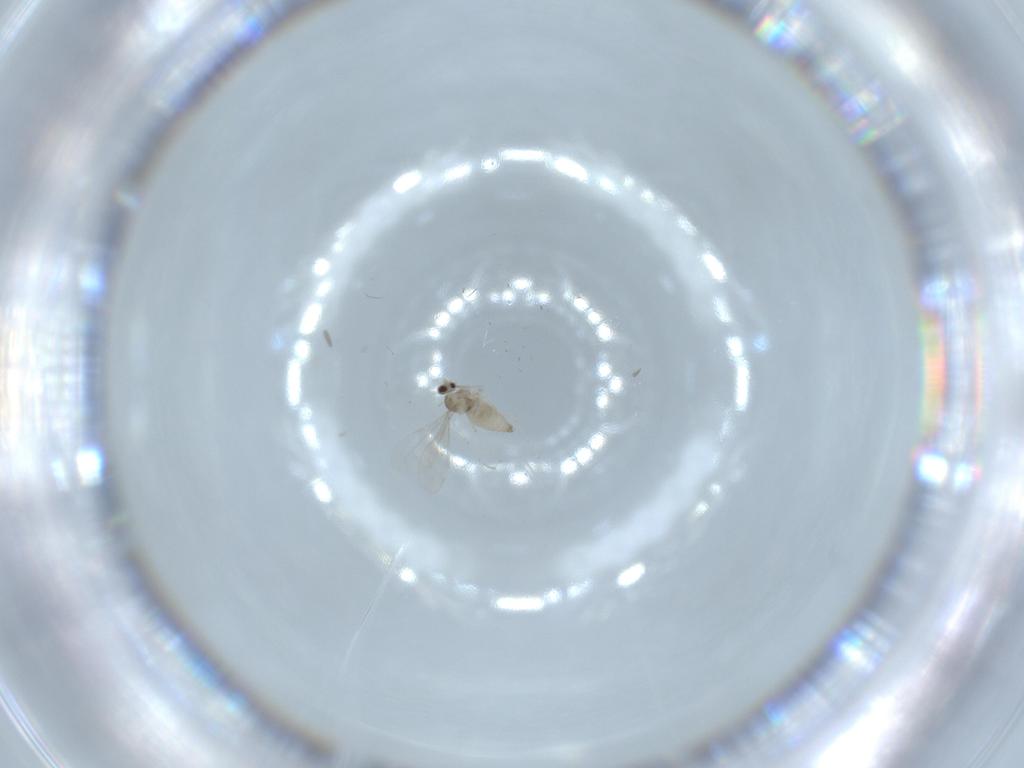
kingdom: Animalia
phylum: Arthropoda
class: Insecta
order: Diptera
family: Cecidomyiidae
